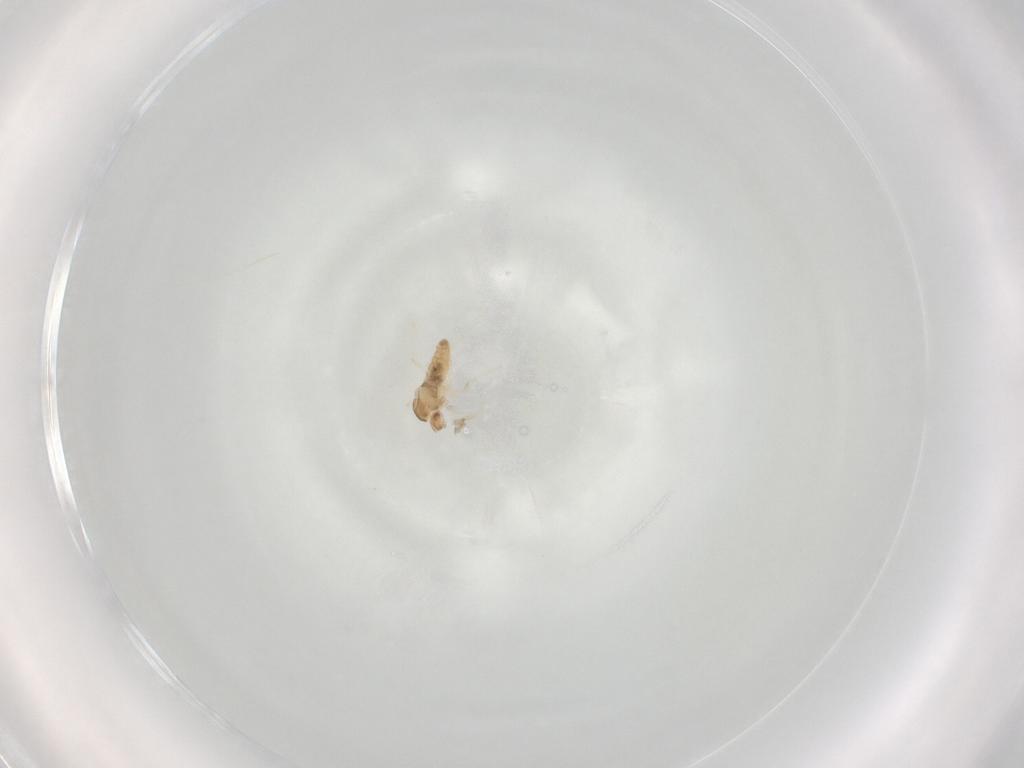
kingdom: Animalia
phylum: Arthropoda
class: Insecta
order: Diptera
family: Cecidomyiidae
